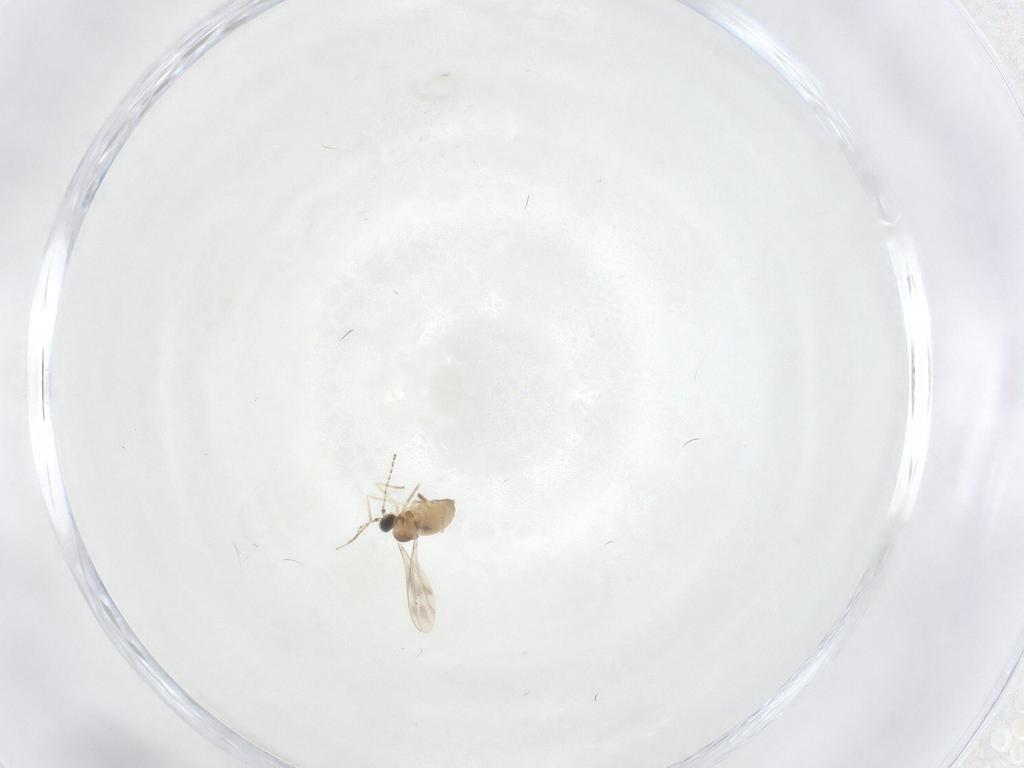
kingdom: Animalia
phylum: Arthropoda
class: Insecta
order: Diptera
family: Cecidomyiidae
